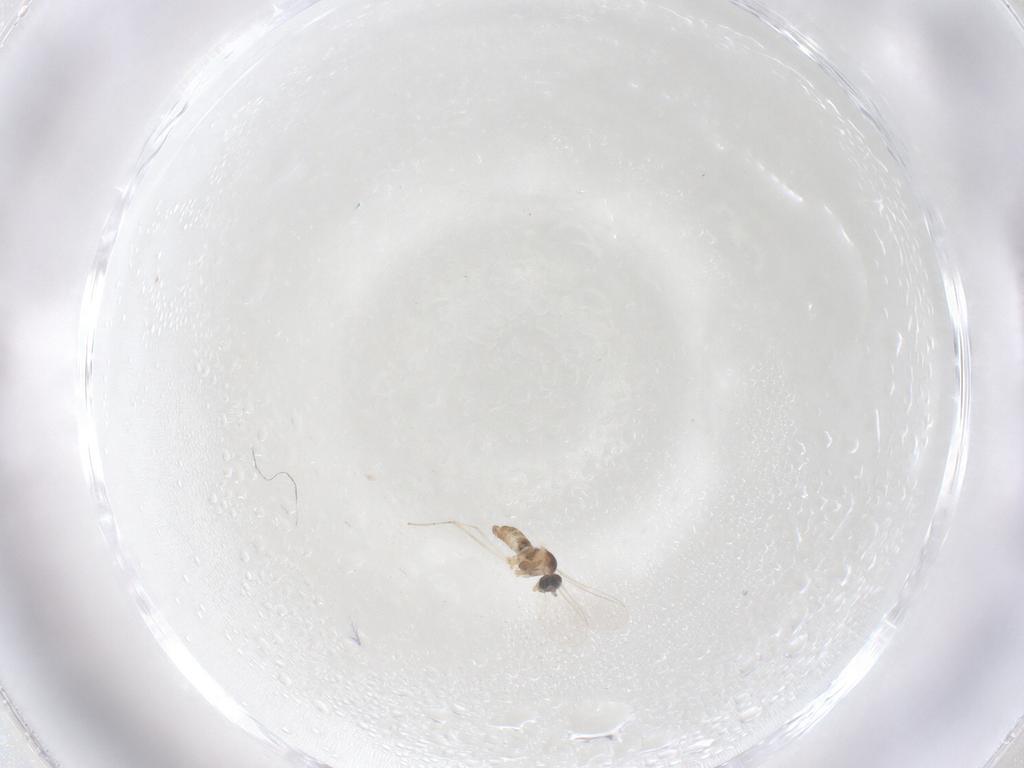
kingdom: Animalia
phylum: Arthropoda
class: Insecta
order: Diptera
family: Cecidomyiidae
